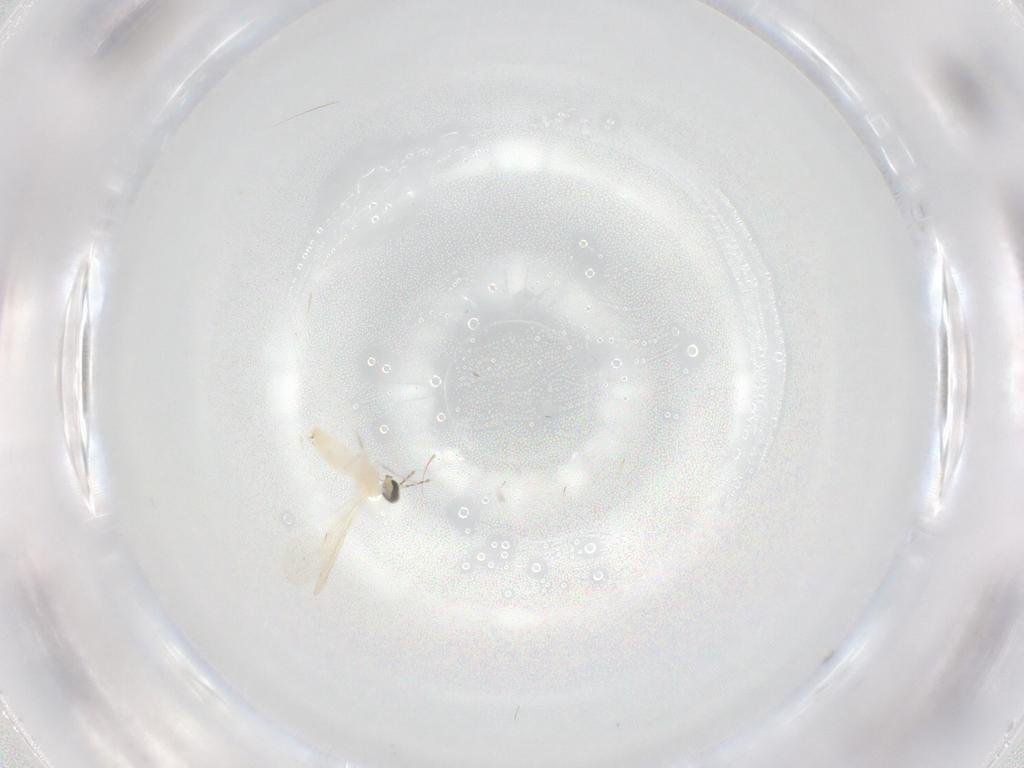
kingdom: Animalia
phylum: Arthropoda
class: Insecta
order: Diptera
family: Cecidomyiidae
